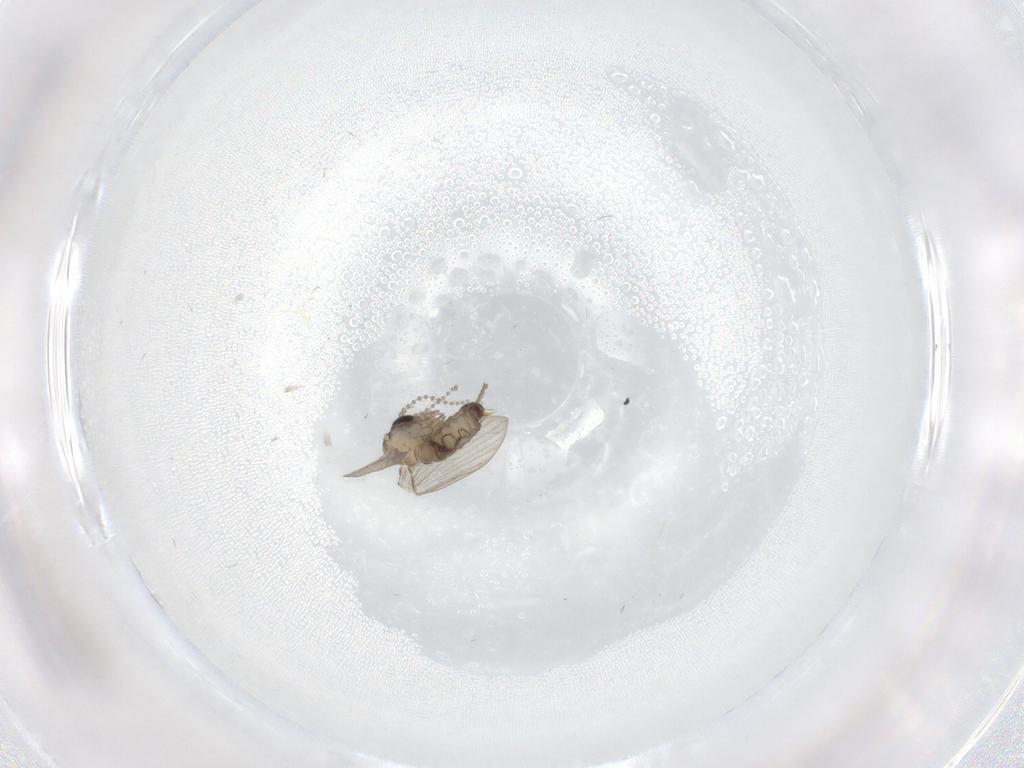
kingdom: Animalia
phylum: Arthropoda
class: Insecta
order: Diptera
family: Psychodidae
